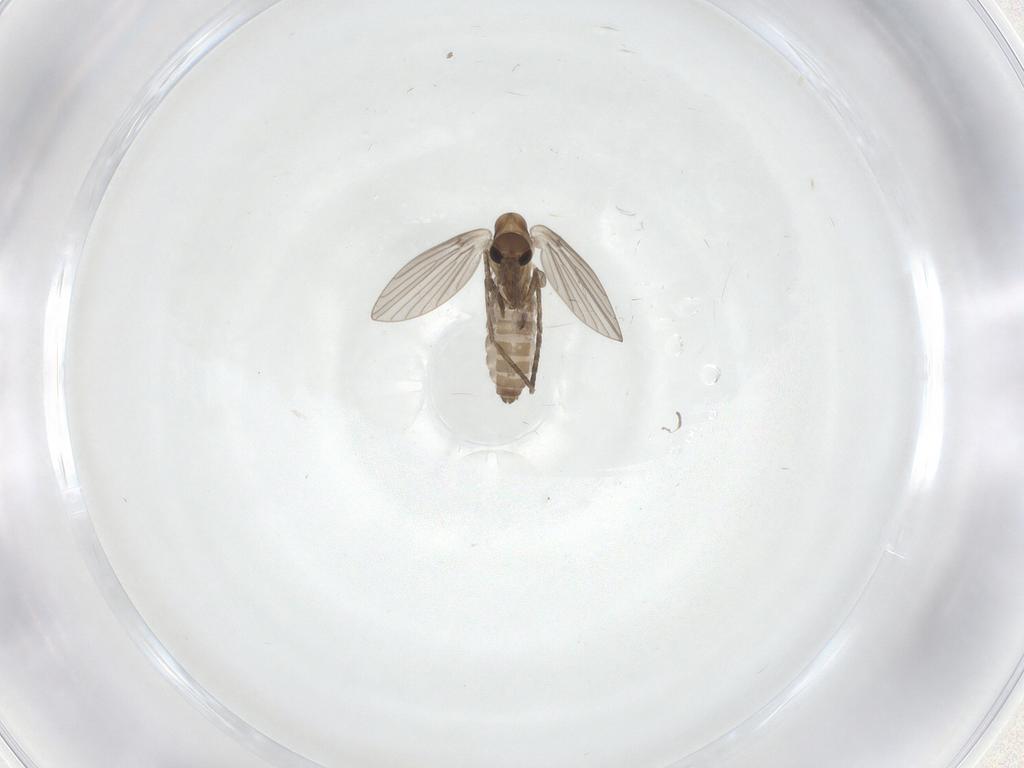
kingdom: Animalia
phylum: Arthropoda
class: Insecta
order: Diptera
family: Psychodidae
